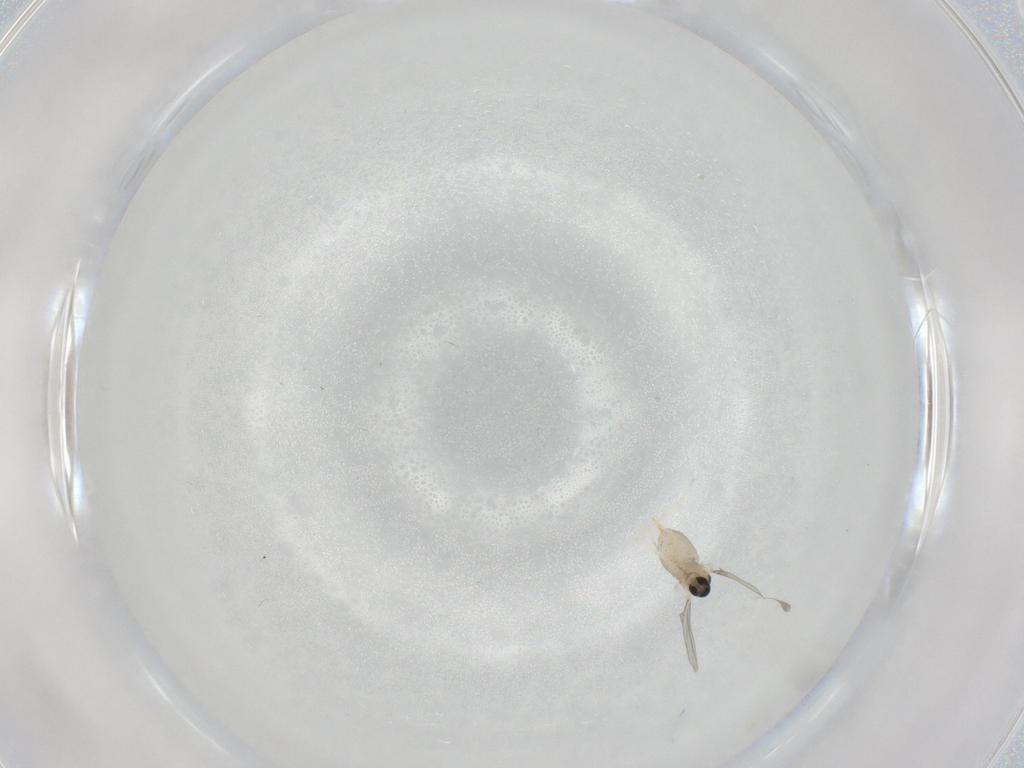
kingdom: Animalia
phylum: Arthropoda
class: Insecta
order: Diptera
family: Cecidomyiidae
